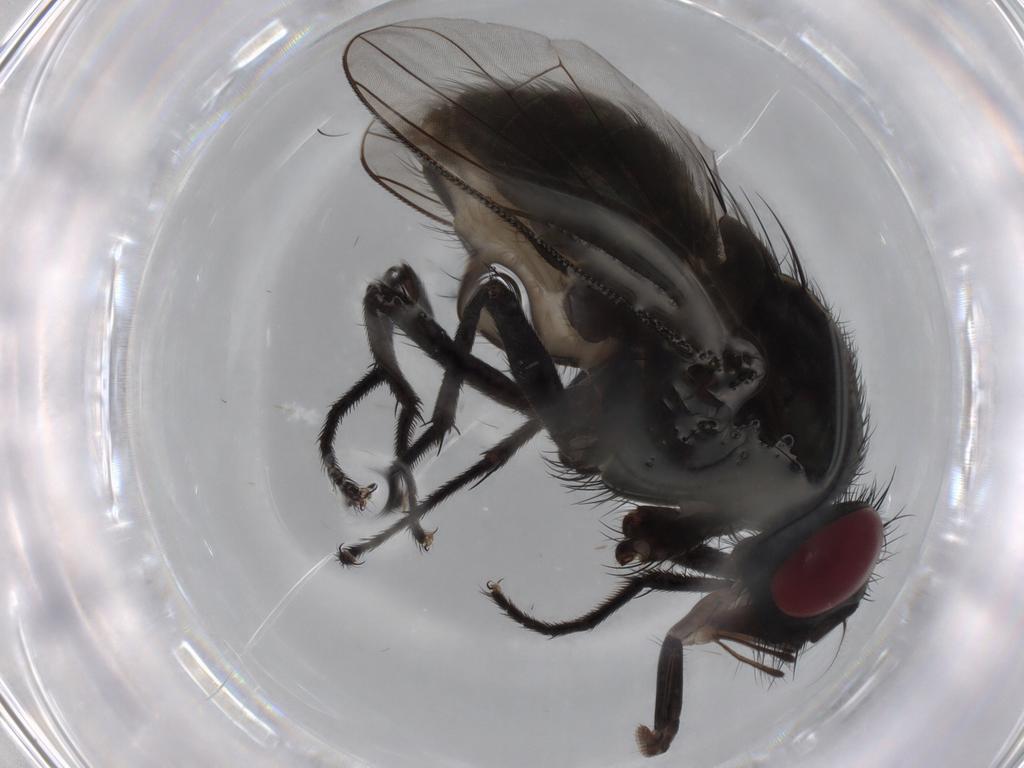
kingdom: Animalia
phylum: Arthropoda
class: Insecta
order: Diptera
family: Muscidae
